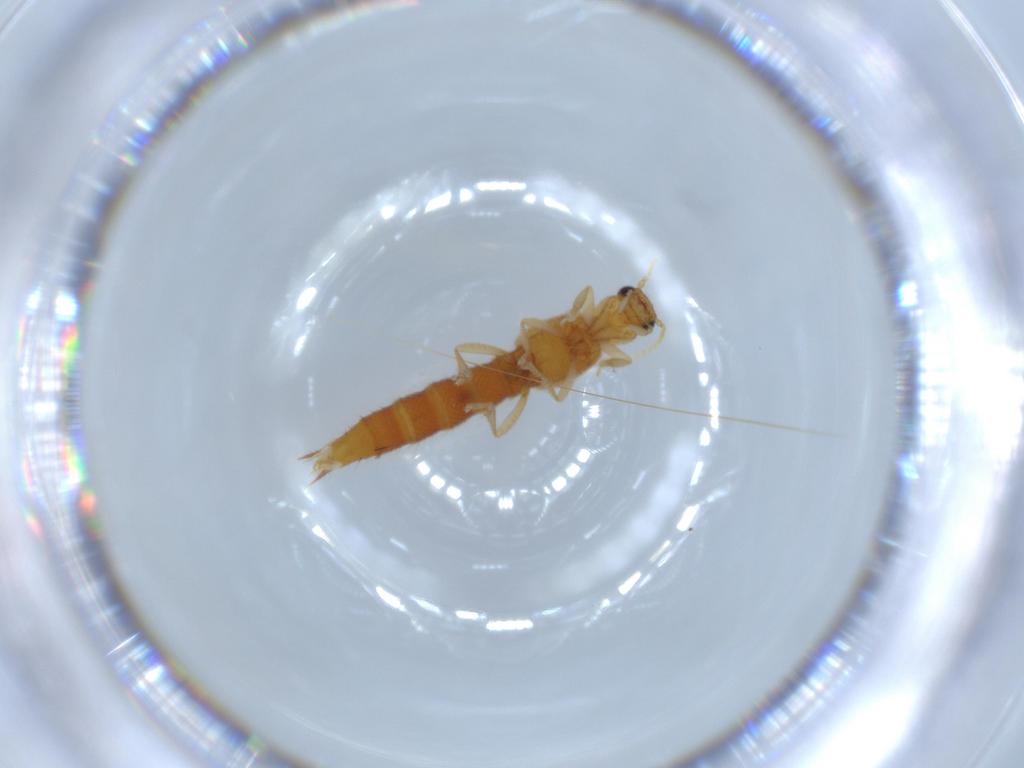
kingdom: Animalia
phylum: Arthropoda
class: Insecta
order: Coleoptera
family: Staphylinidae
